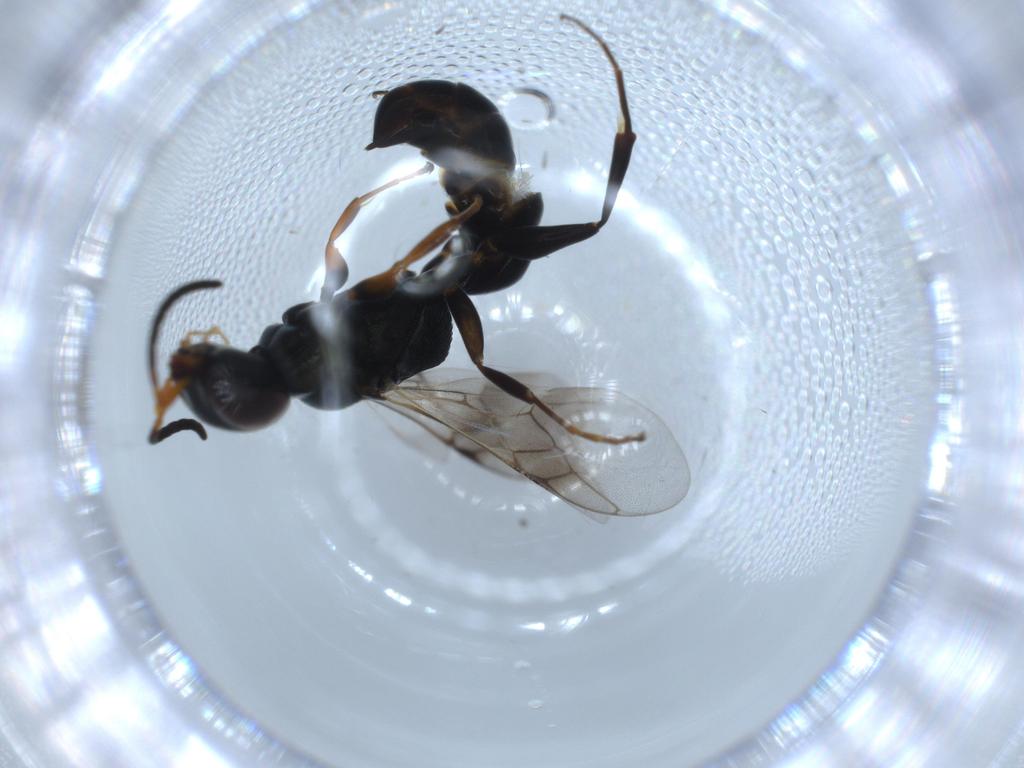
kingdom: Animalia
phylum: Arthropoda
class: Insecta
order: Hymenoptera
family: Crabronidae
